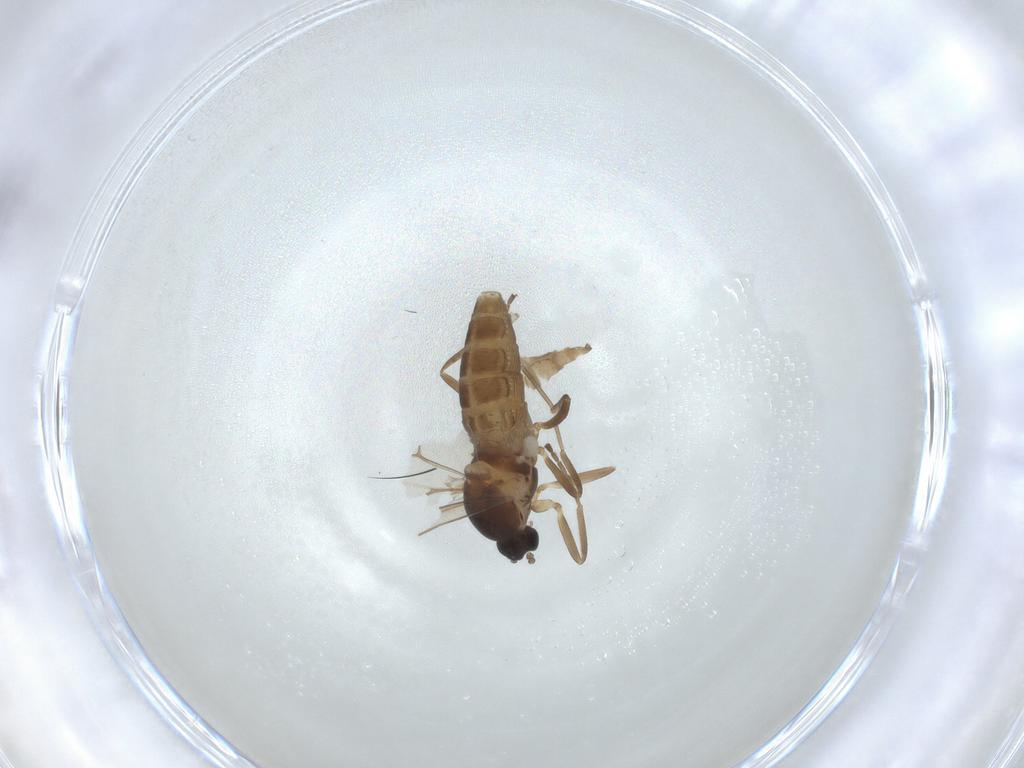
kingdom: Animalia
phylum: Arthropoda
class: Insecta
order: Diptera
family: Cecidomyiidae
